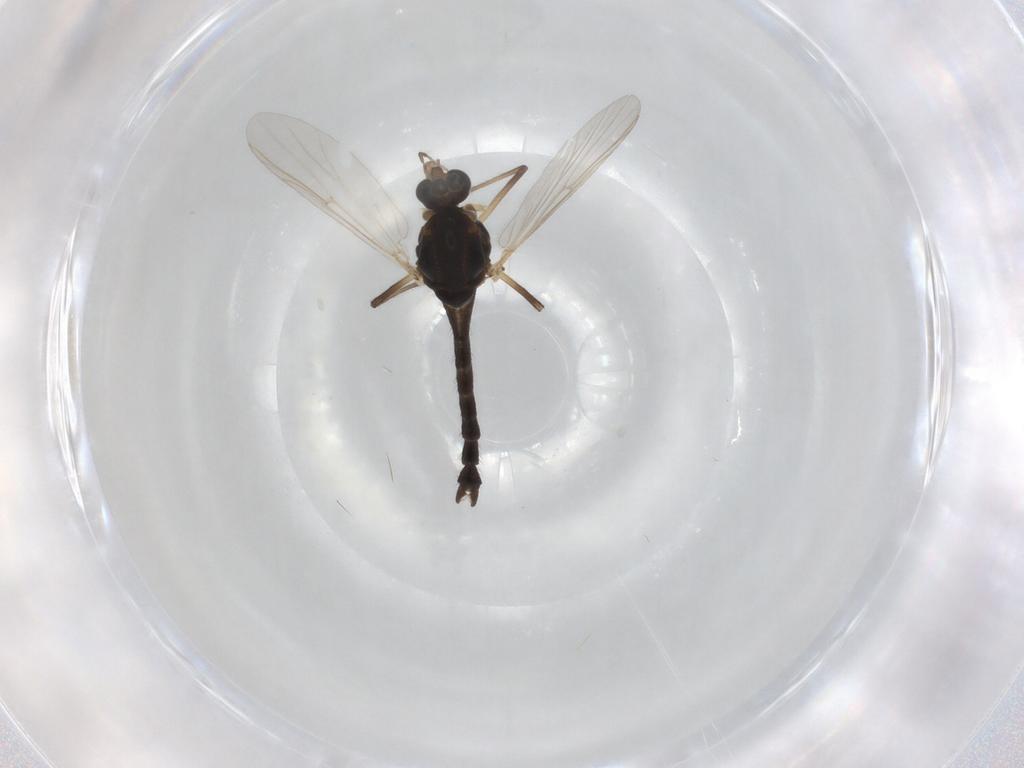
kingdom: Animalia
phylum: Arthropoda
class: Insecta
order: Diptera
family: Cecidomyiidae
